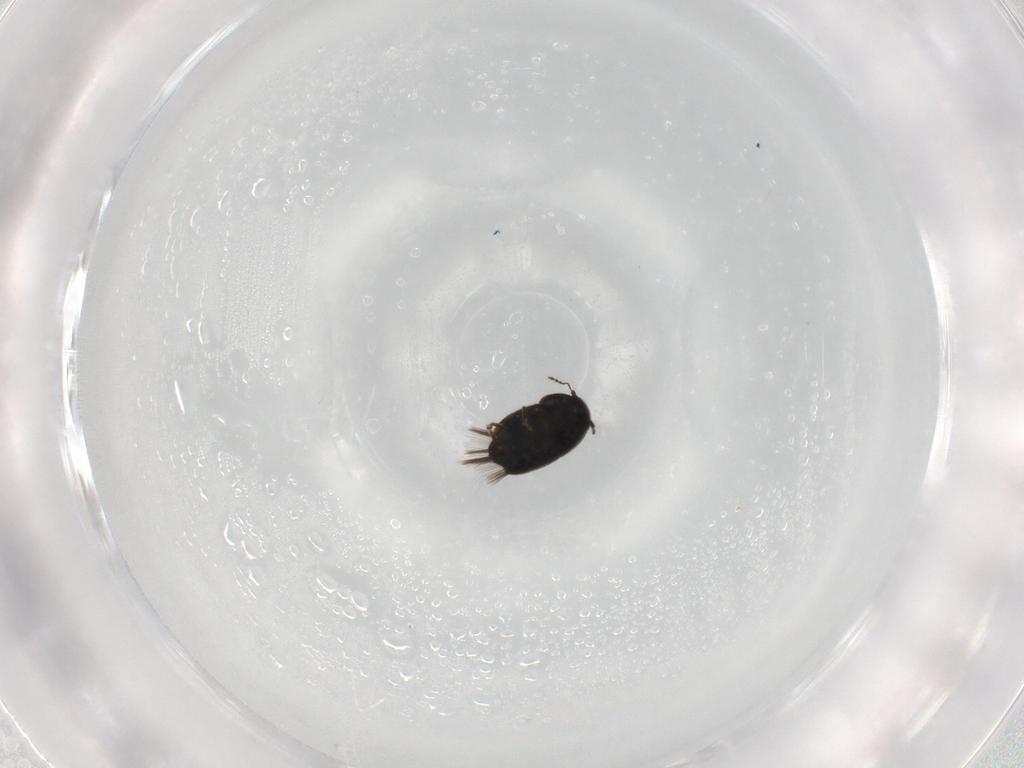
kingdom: Animalia
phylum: Arthropoda
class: Insecta
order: Coleoptera
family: Ptiliidae
